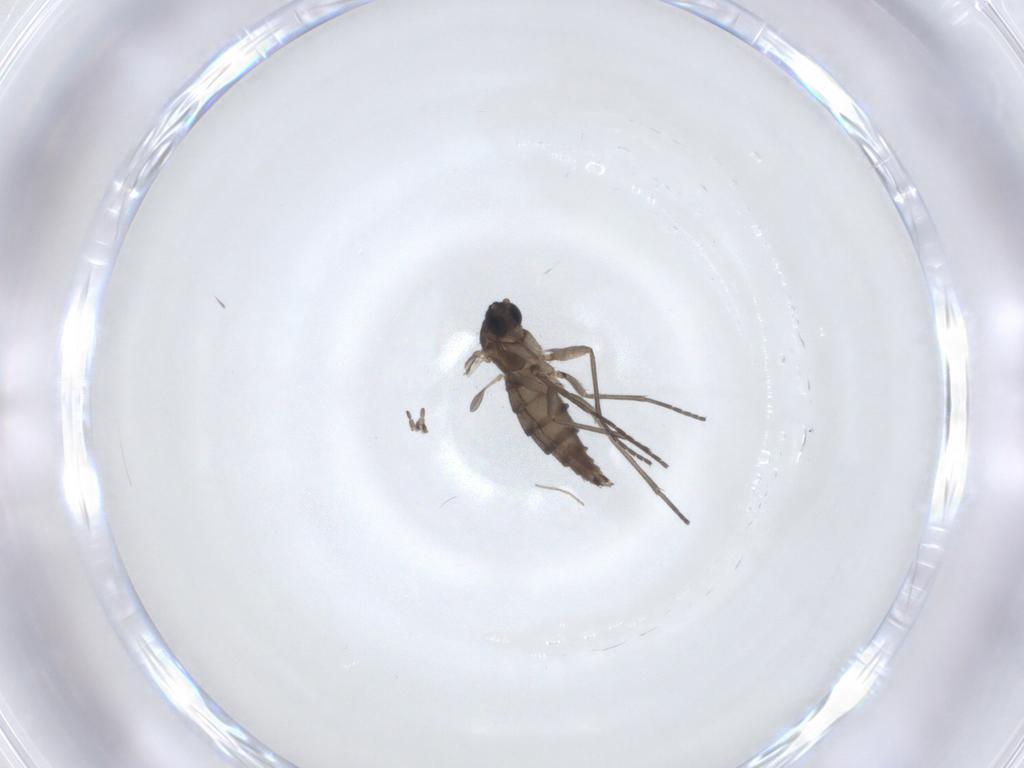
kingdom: Animalia
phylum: Arthropoda
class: Insecta
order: Diptera
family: Sciaridae
